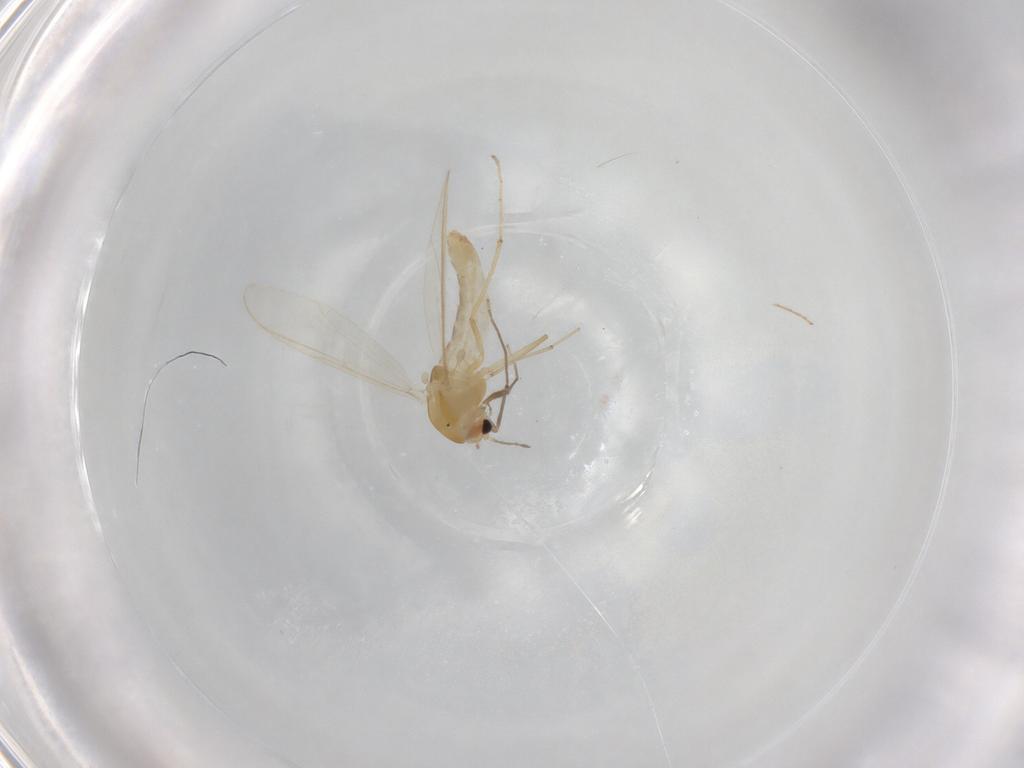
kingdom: Animalia
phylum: Arthropoda
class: Insecta
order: Diptera
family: Chironomidae
